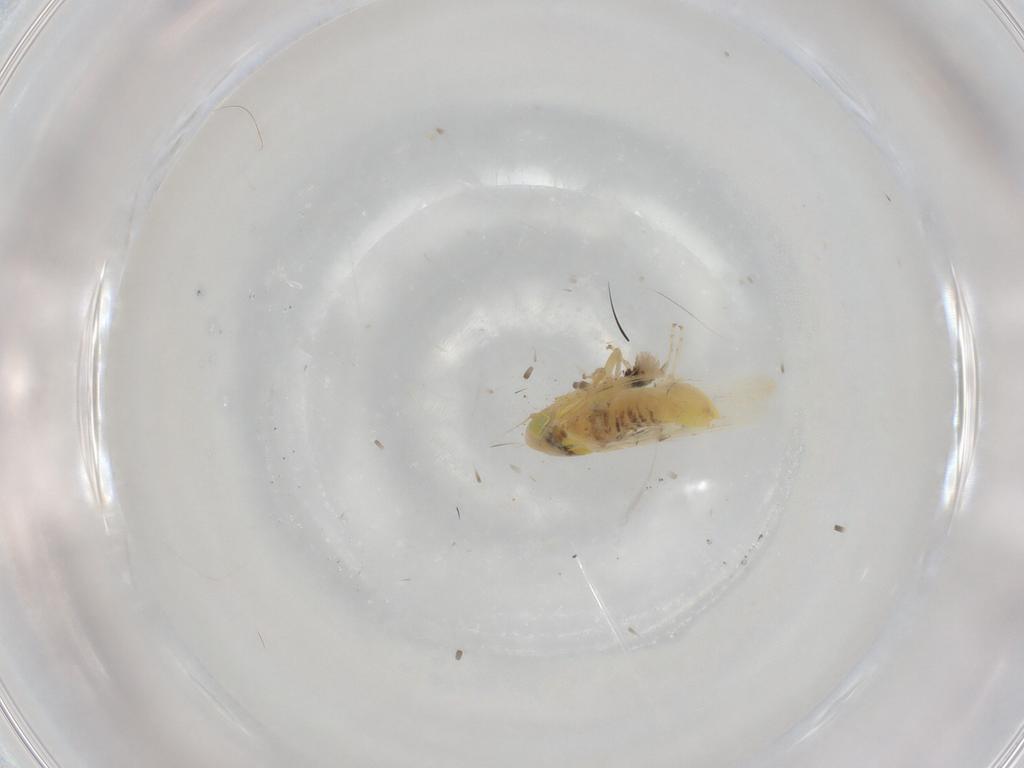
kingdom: Animalia
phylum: Arthropoda
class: Insecta
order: Hemiptera
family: Cicadellidae
